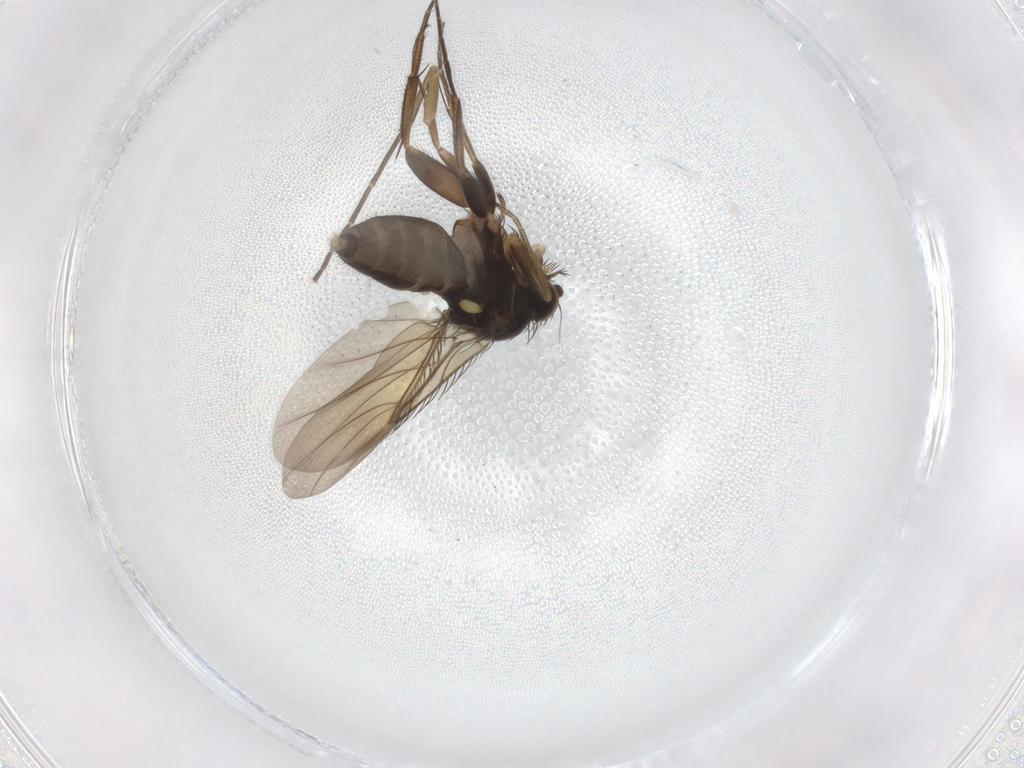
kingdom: Animalia
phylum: Arthropoda
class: Insecta
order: Diptera
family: Phoridae
